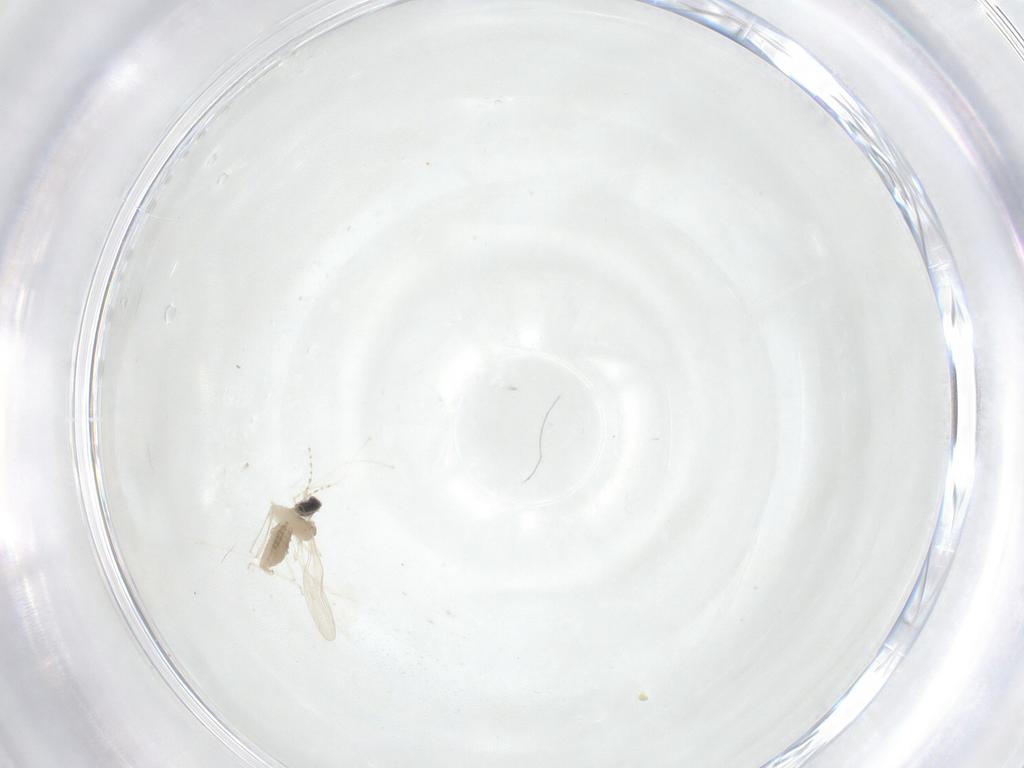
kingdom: Animalia
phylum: Arthropoda
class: Insecta
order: Diptera
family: Cecidomyiidae
